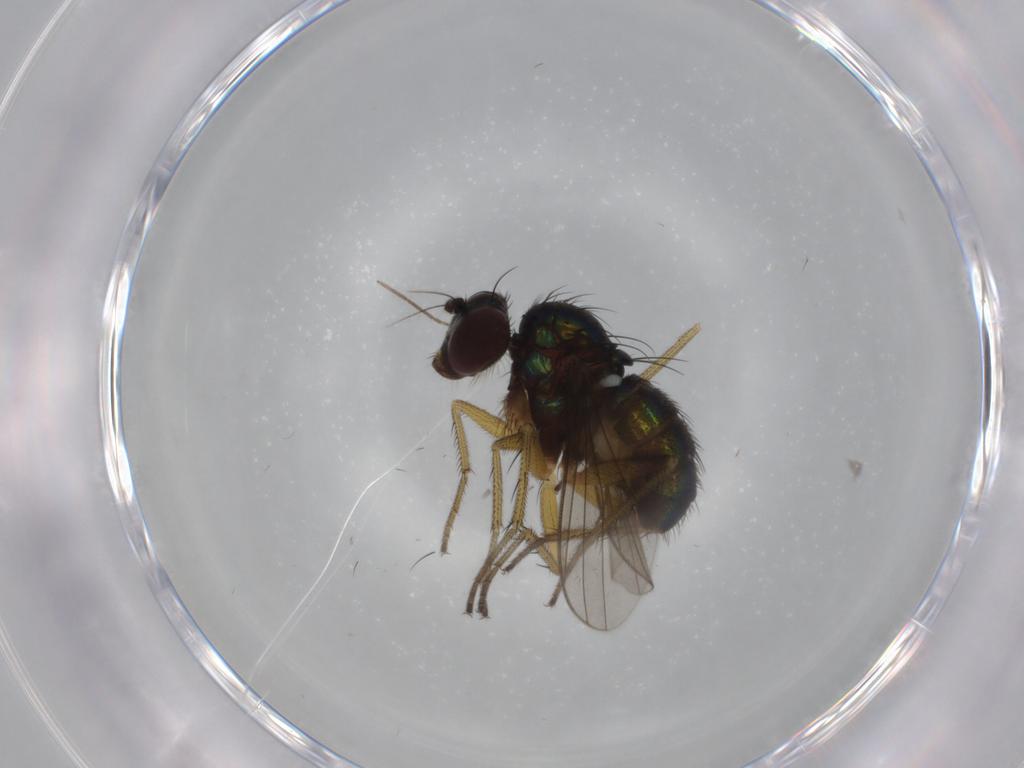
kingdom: Animalia
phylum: Arthropoda
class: Insecta
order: Diptera
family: Dolichopodidae
